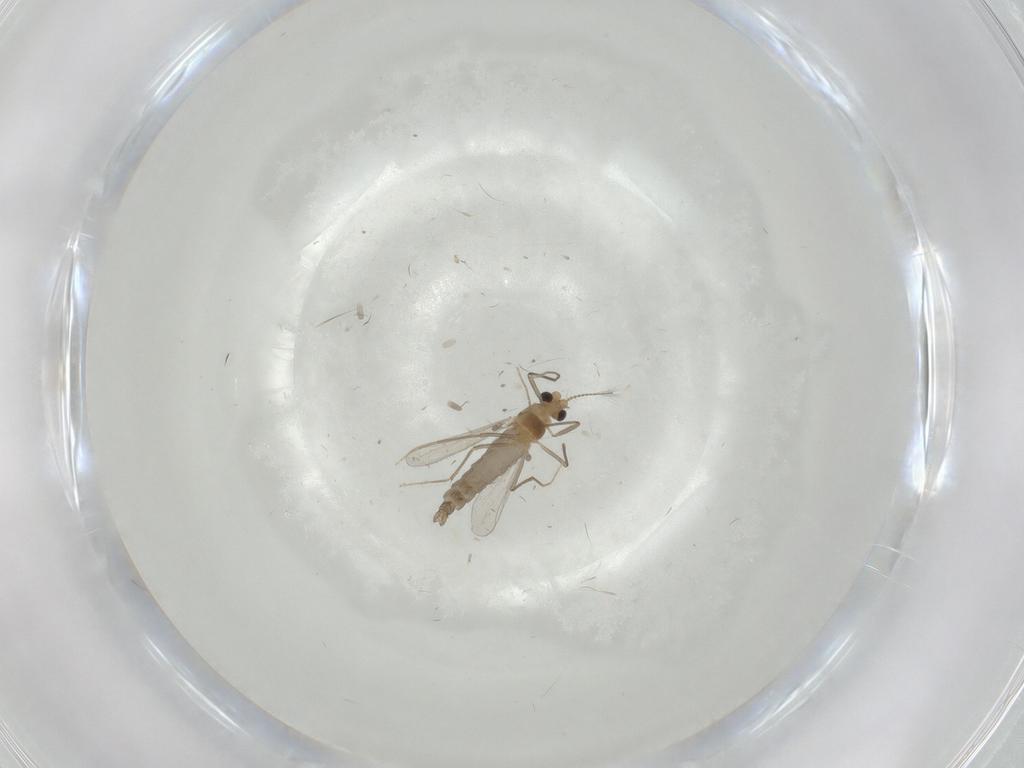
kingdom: Animalia
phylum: Arthropoda
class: Insecta
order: Diptera
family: Chironomidae
